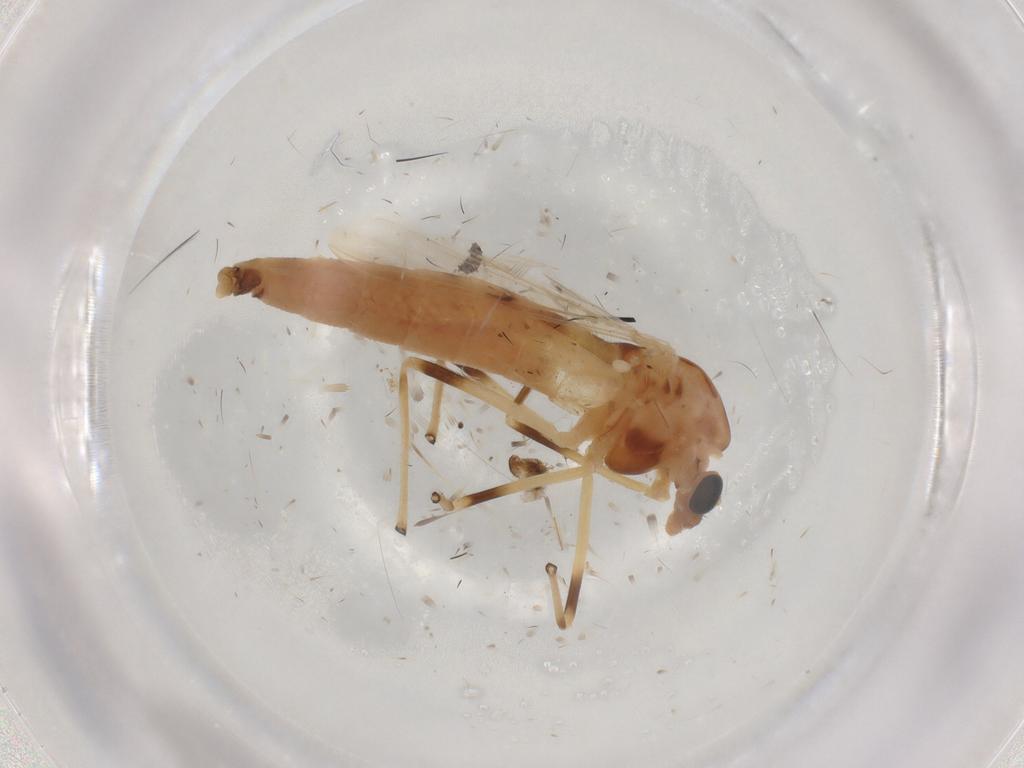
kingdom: Animalia
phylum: Arthropoda
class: Insecta
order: Diptera
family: Chironomidae
